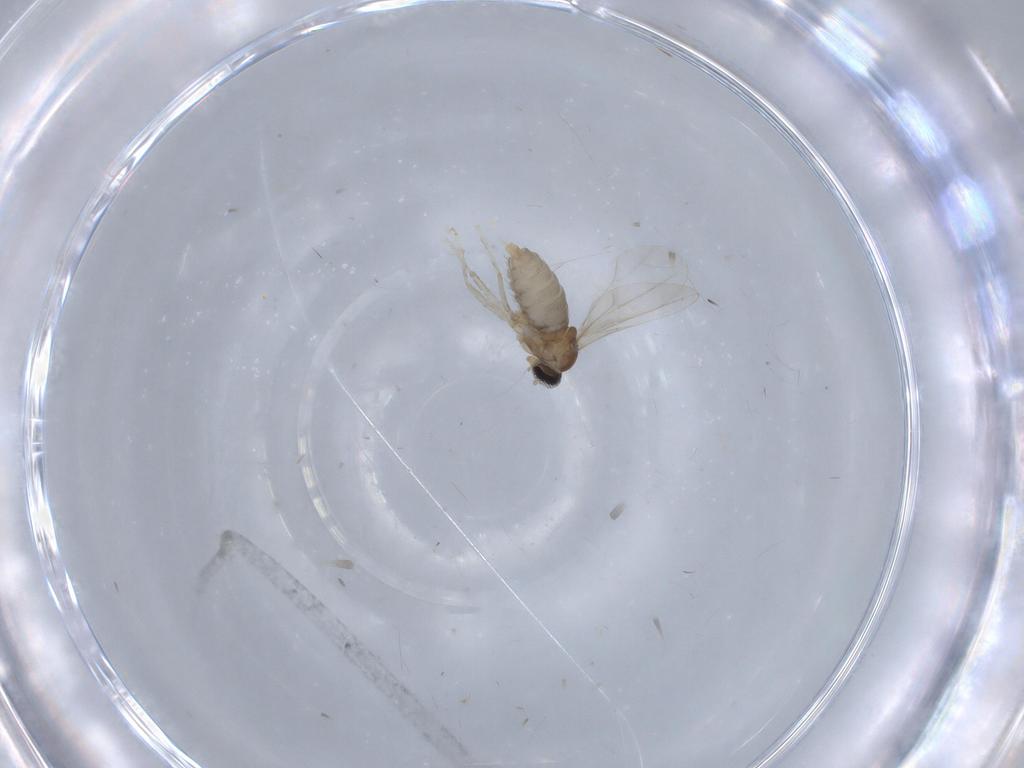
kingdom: Animalia
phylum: Arthropoda
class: Insecta
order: Diptera
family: Cecidomyiidae
